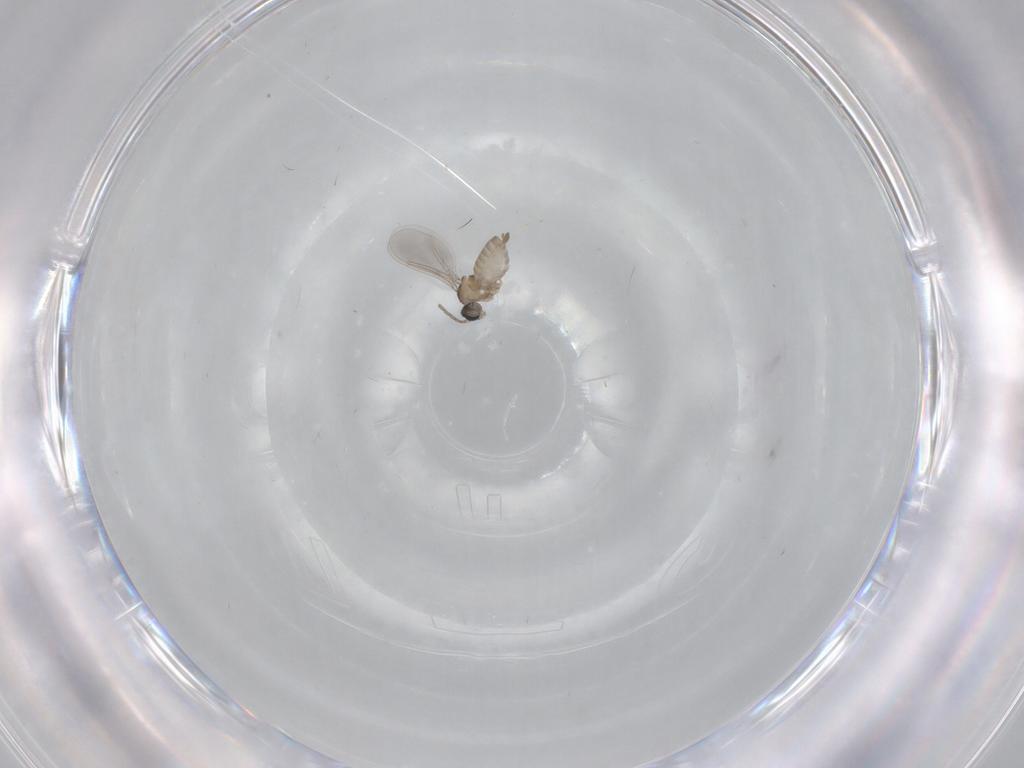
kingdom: Animalia
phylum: Arthropoda
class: Insecta
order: Diptera
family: Cecidomyiidae
